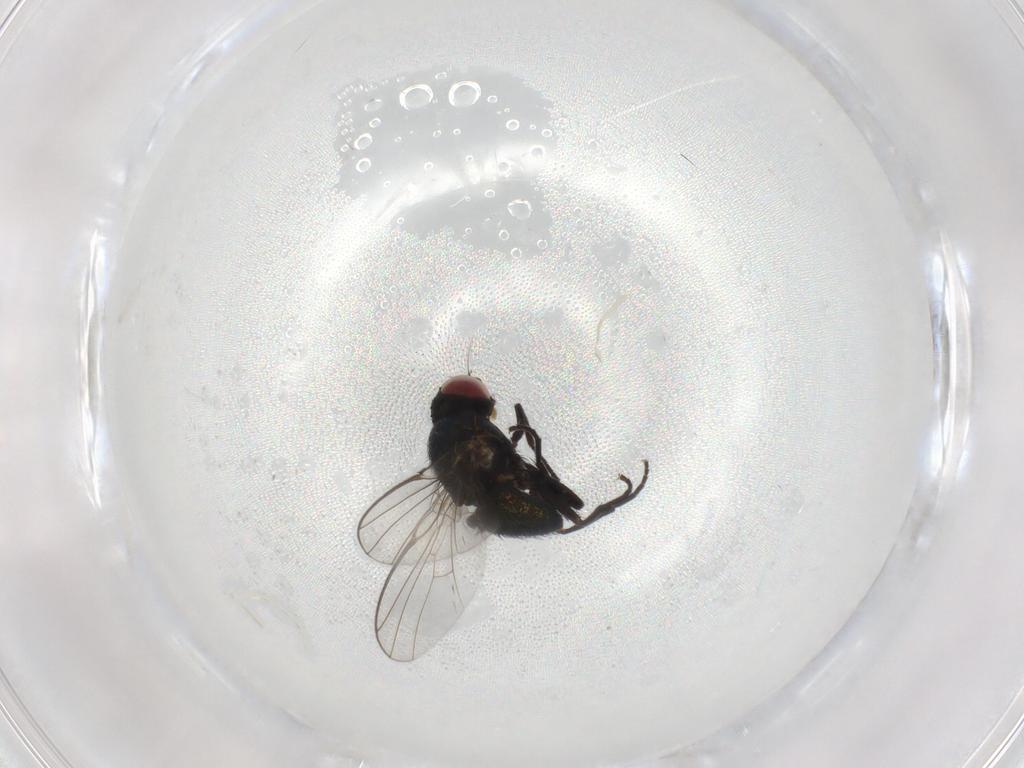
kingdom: Animalia
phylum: Arthropoda
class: Insecta
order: Diptera
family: Agromyzidae
